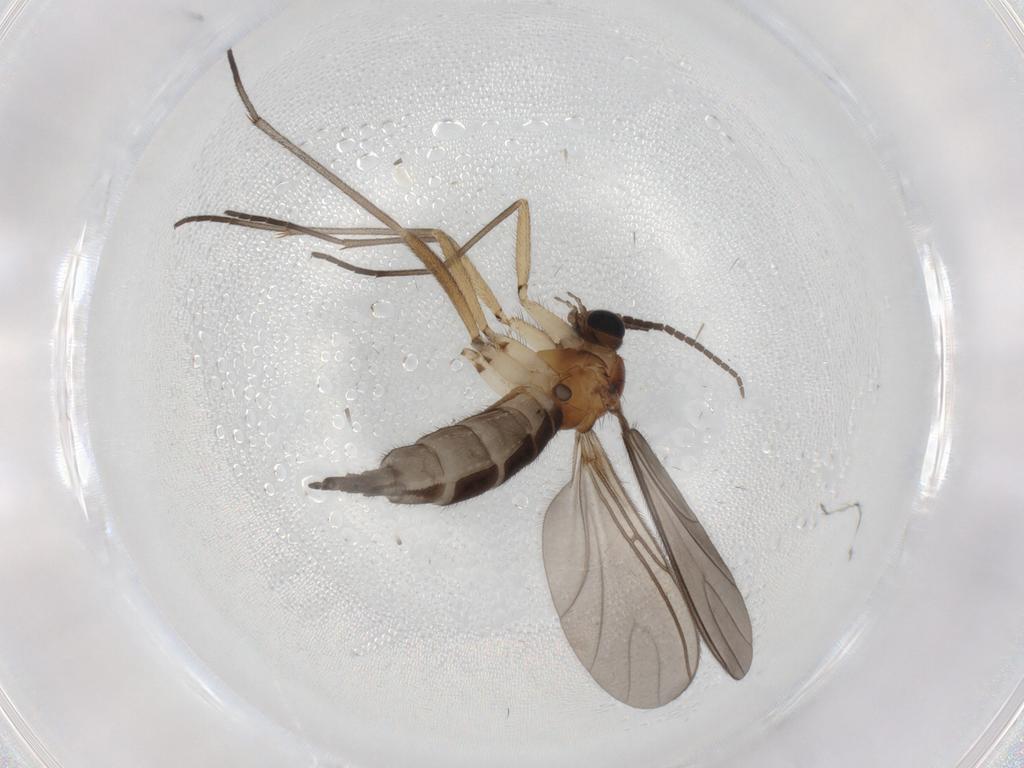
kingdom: Animalia
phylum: Arthropoda
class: Insecta
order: Diptera
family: Sciaridae
